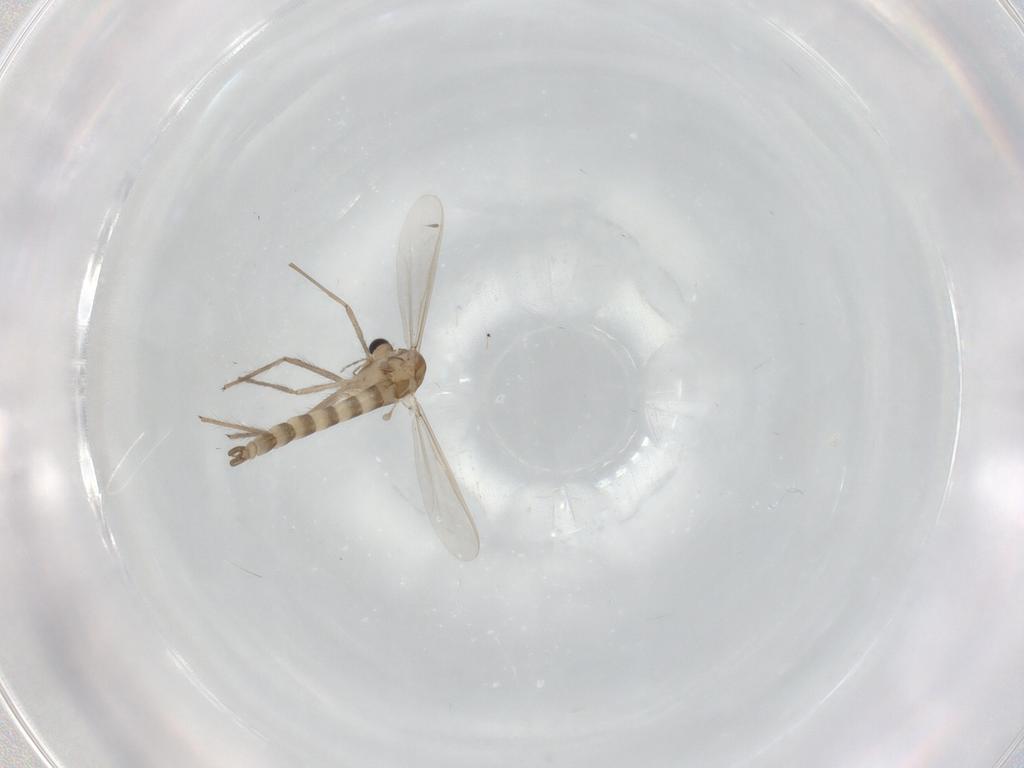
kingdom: Animalia
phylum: Arthropoda
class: Insecta
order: Diptera
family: Chironomidae
